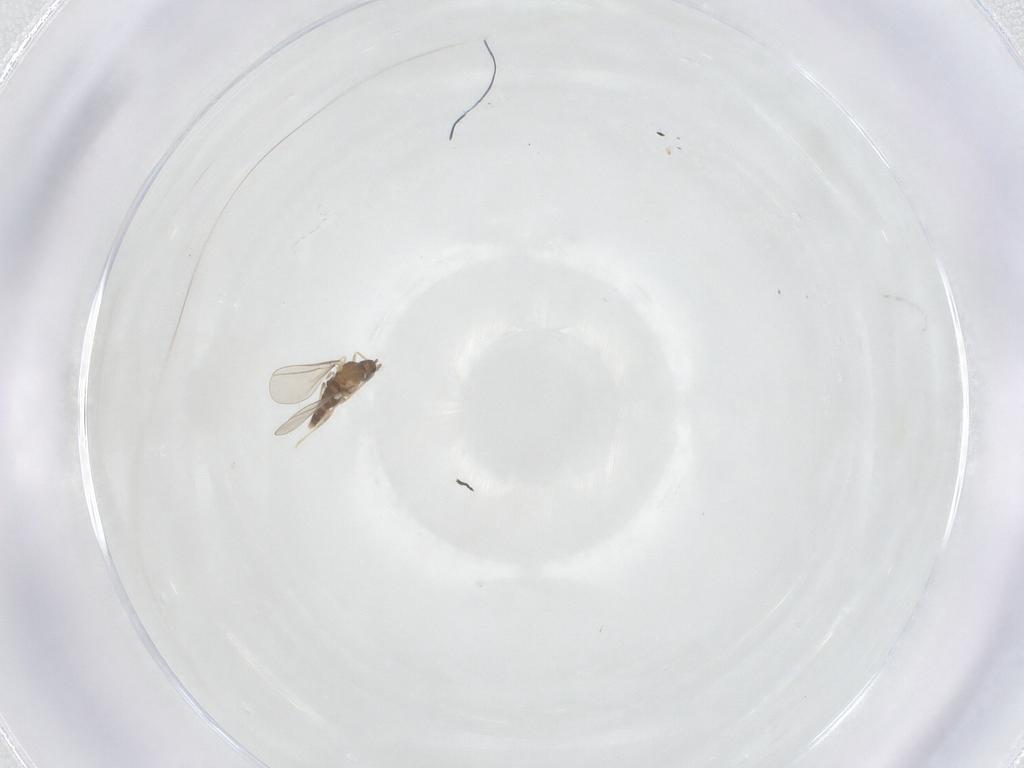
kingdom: Animalia
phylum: Arthropoda
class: Insecta
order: Diptera
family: Cecidomyiidae
